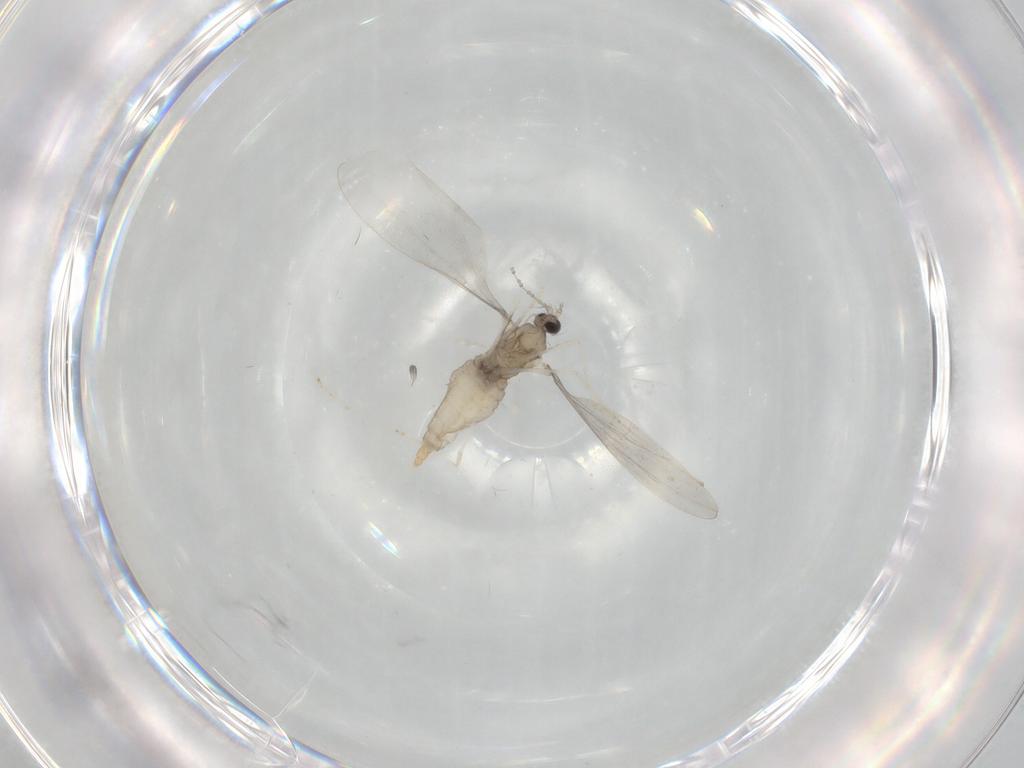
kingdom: Animalia
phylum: Arthropoda
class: Insecta
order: Diptera
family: Cecidomyiidae
